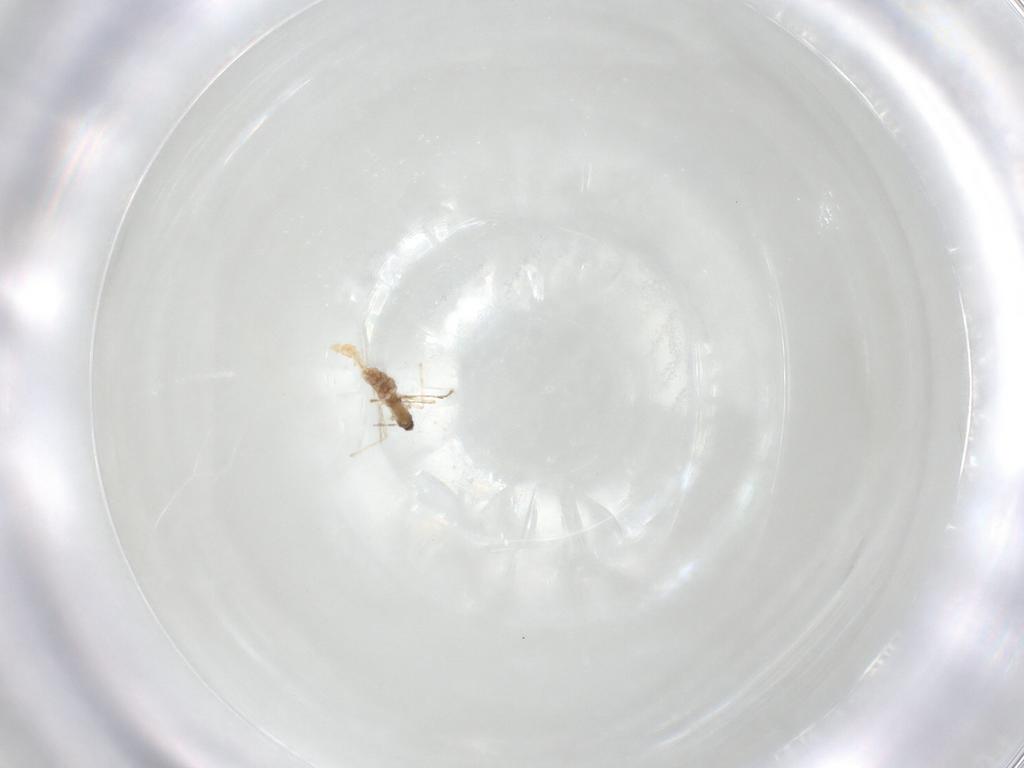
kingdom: Animalia
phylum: Arthropoda
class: Insecta
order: Diptera
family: Cecidomyiidae
